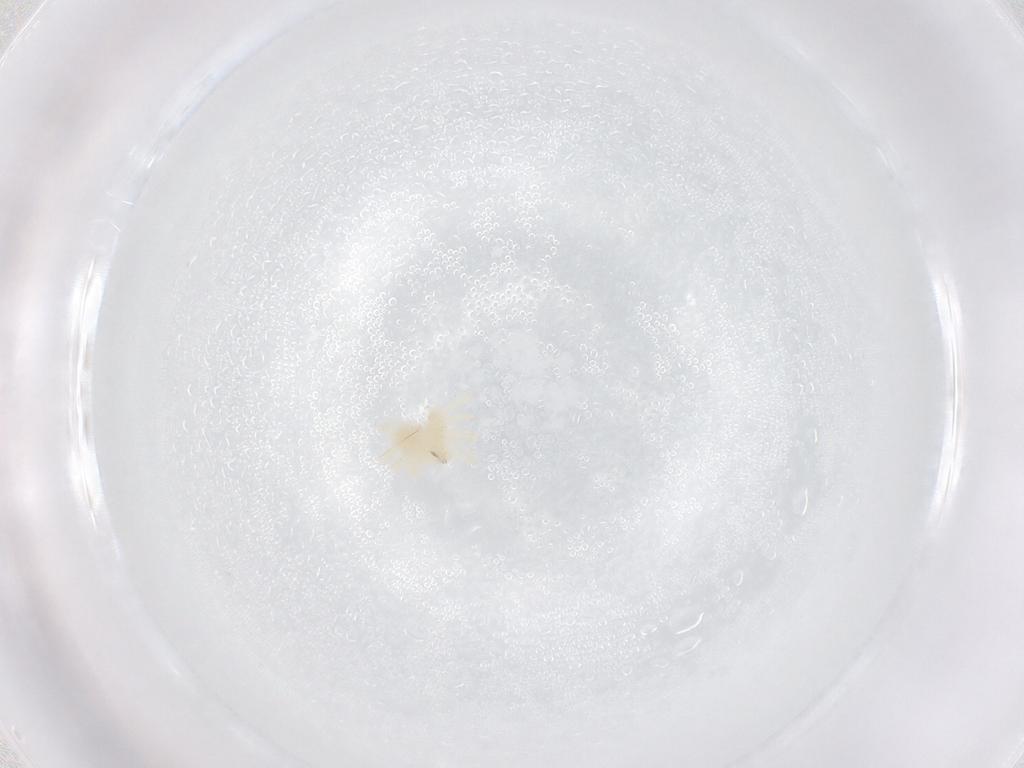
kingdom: Animalia
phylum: Arthropoda
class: Arachnida
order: Trombidiformes
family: Anystidae
